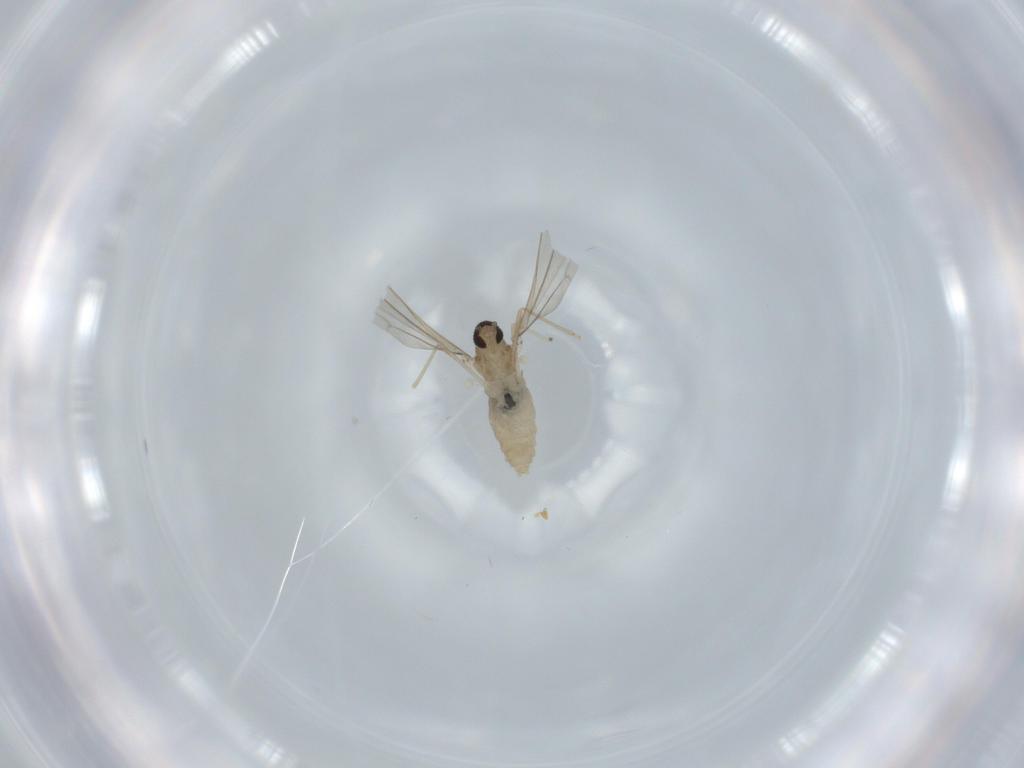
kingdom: Animalia
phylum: Arthropoda
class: Insecta
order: Diptera
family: Cecidomyiidae
